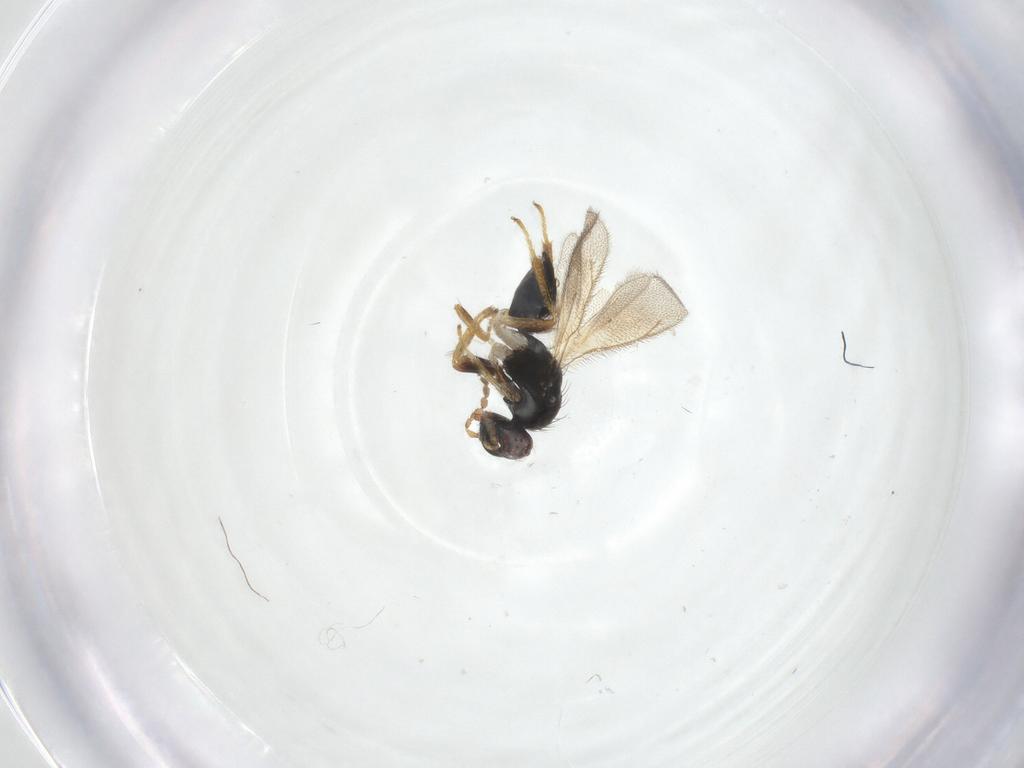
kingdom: Animalia
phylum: Arthropoda
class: Insecta
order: Hymenoptera
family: Eulophidae
